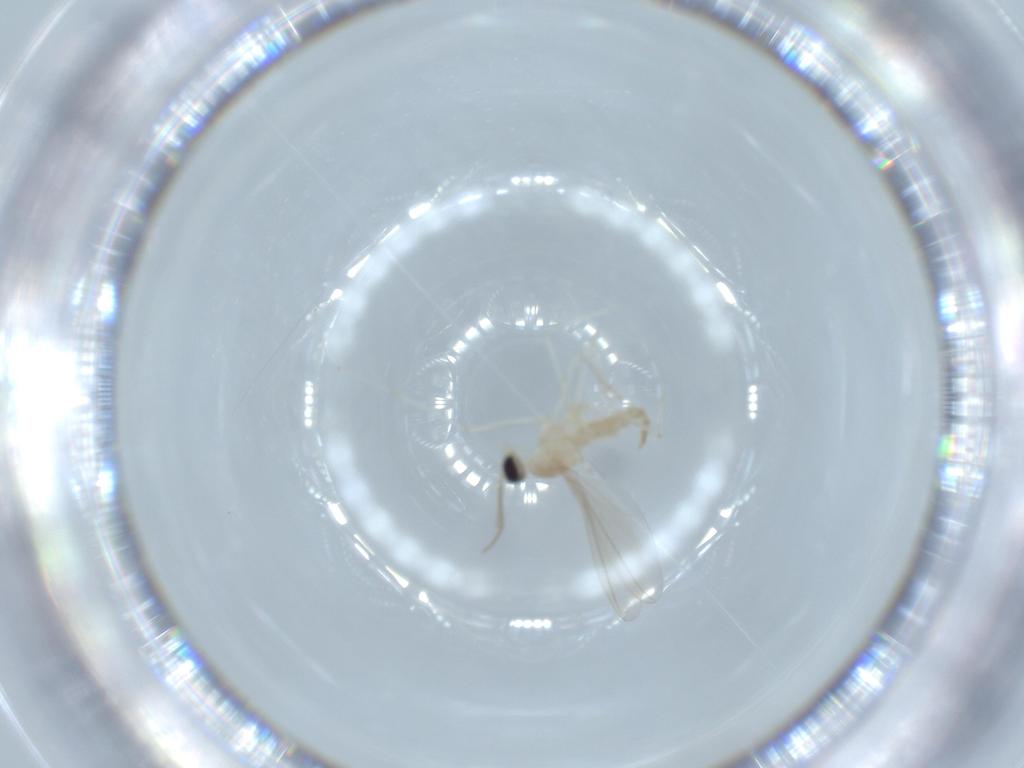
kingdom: Animalia
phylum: Arthropoda
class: Insecta
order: Diptera
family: Cecidomyiidae
